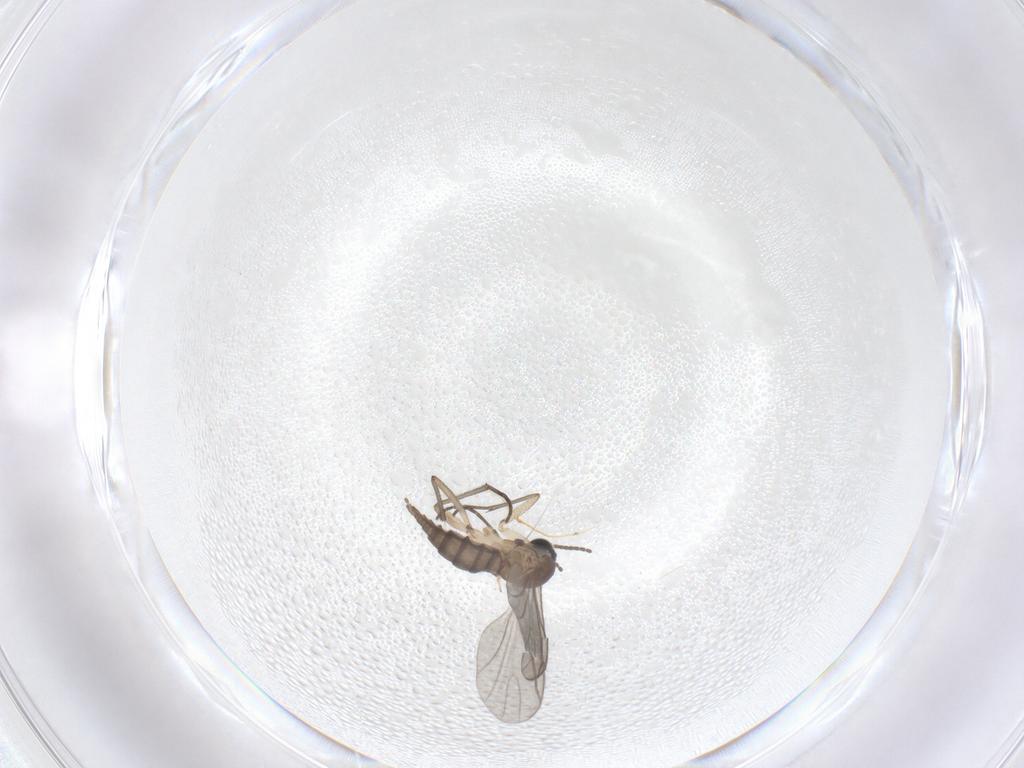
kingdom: Animalia
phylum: Arthropoda
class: Insecta
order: Diptera
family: Sciaridae
